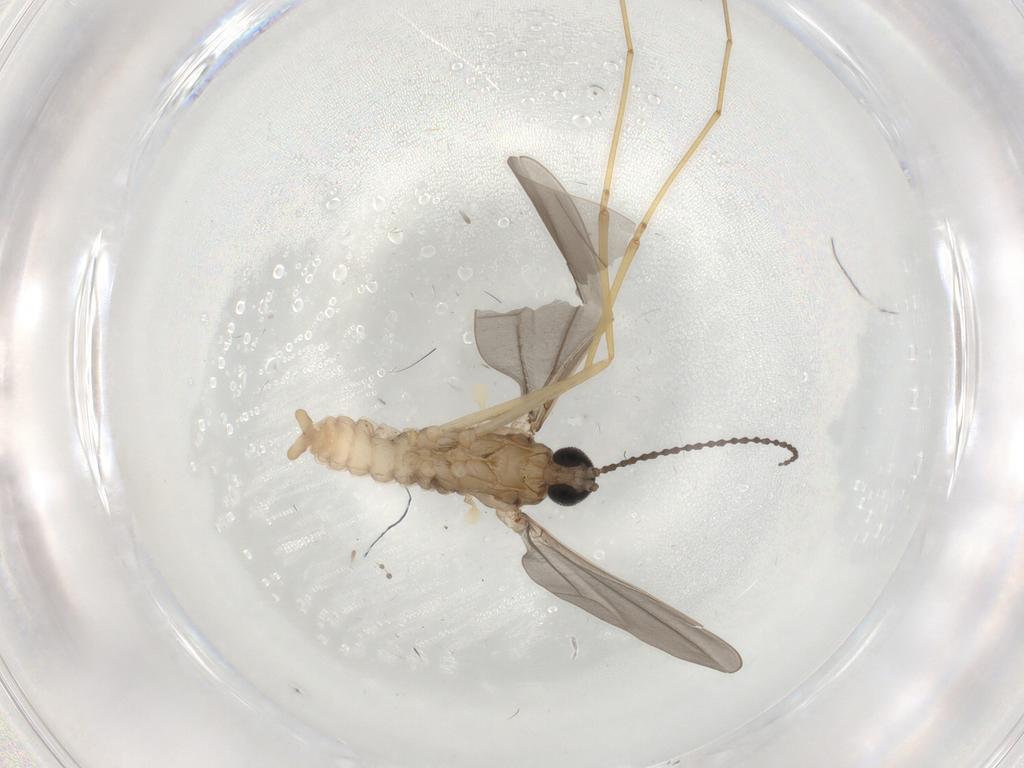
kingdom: Animalia
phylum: Arthropoda
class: Insecta
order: Diptera
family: Cecidomyiidae
